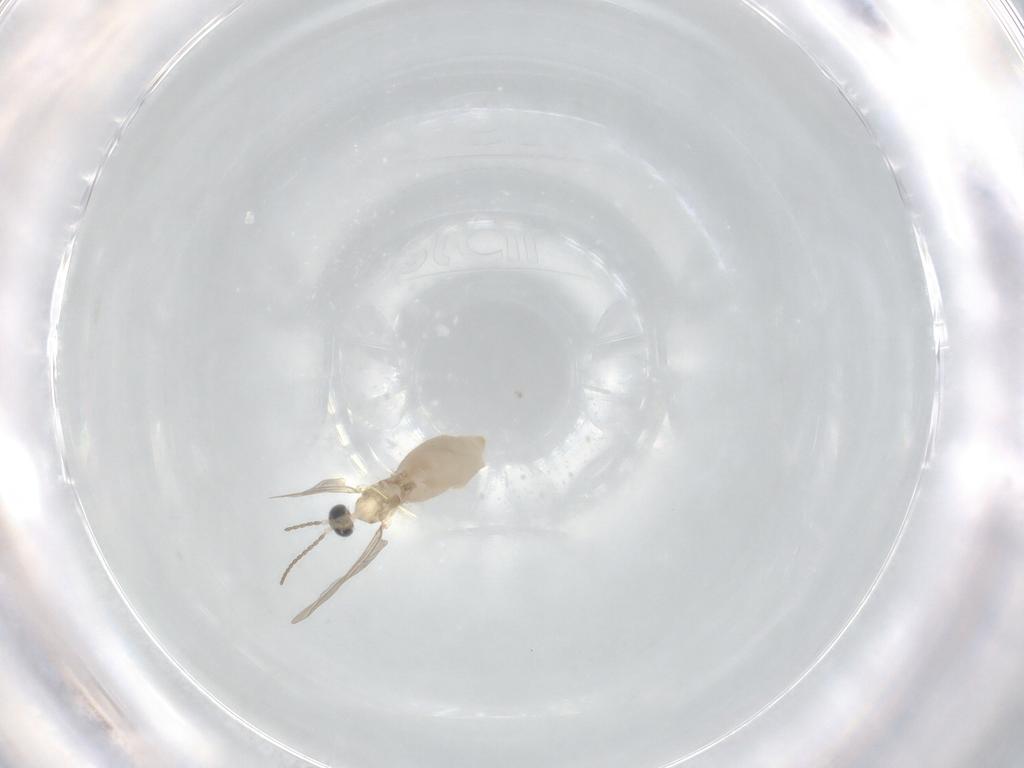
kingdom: Animalia
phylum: Arthropoda
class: Insecta
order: Diptera
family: Cecidomyiidae
